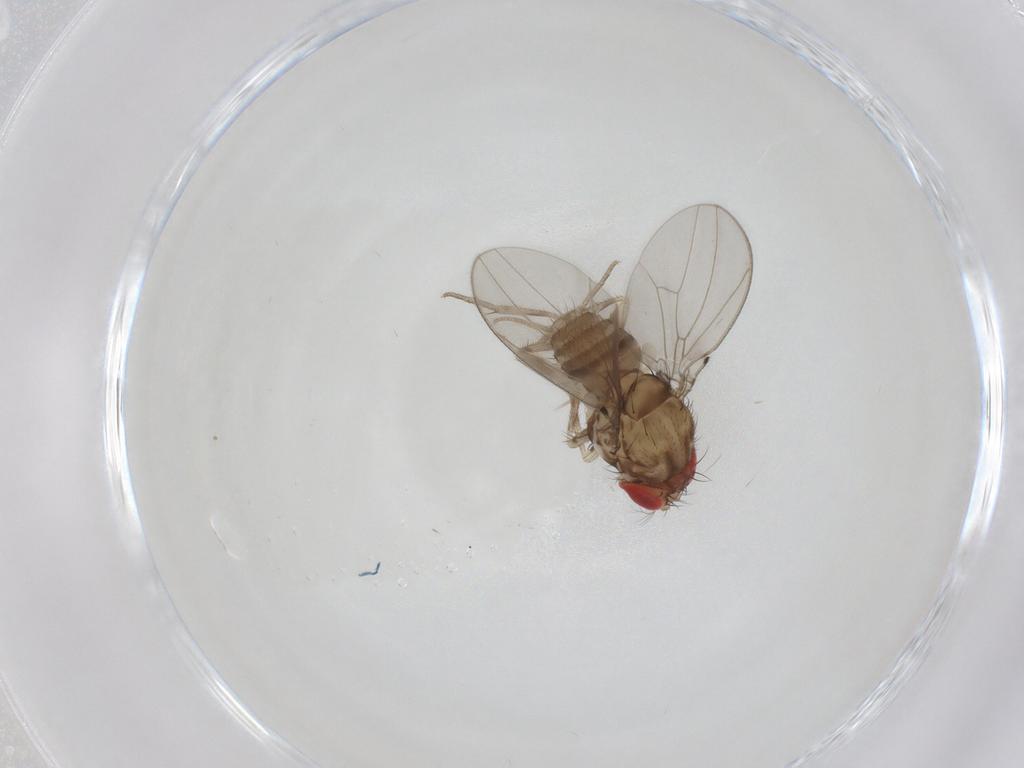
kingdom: Animalia
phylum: Arthropoda
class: Insecta
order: Diptera
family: Drosophilidae
